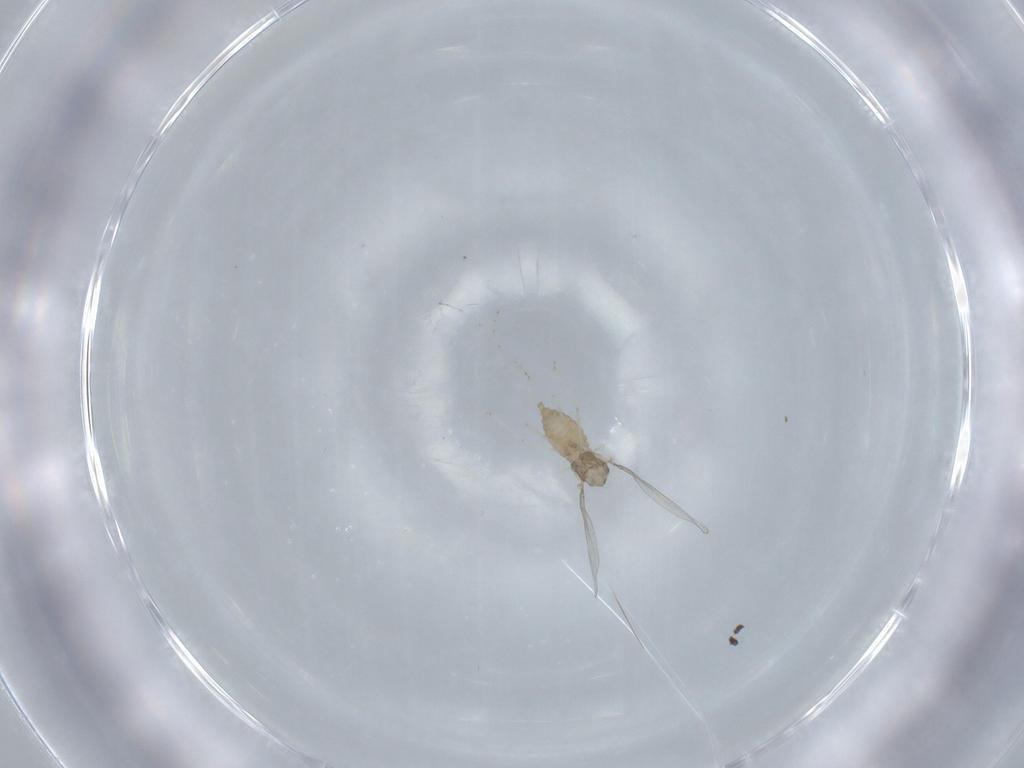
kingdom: Animalia
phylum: Arthropoda
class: Insecta
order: Diptera
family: Cecidomyiidae
